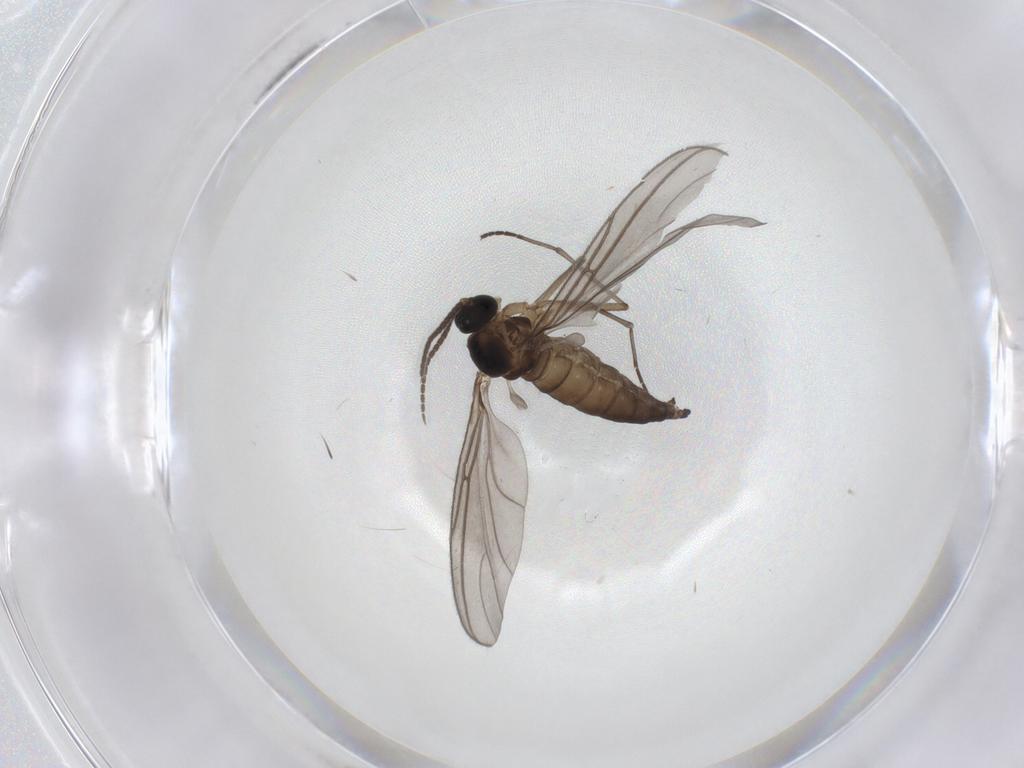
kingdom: Animalia
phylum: Arthropoda
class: Insecta
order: Diptera
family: Sciaridae
